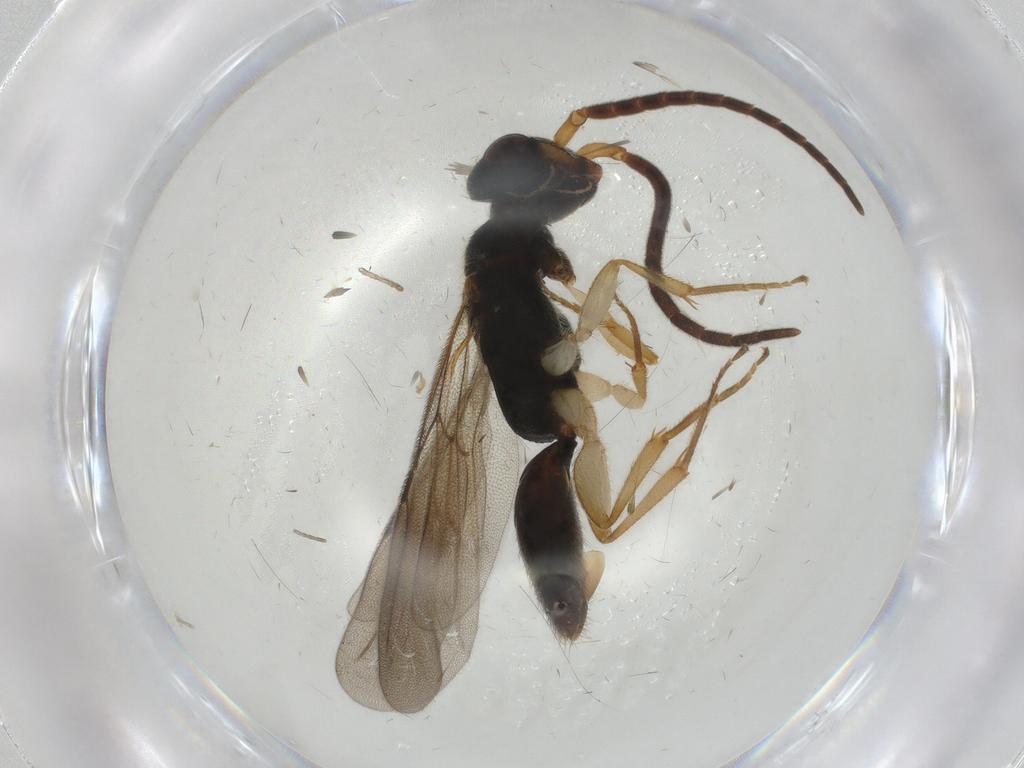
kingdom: Animalia
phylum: Arthropoda
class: Insecta
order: Hymenoptera
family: Bethylidae
